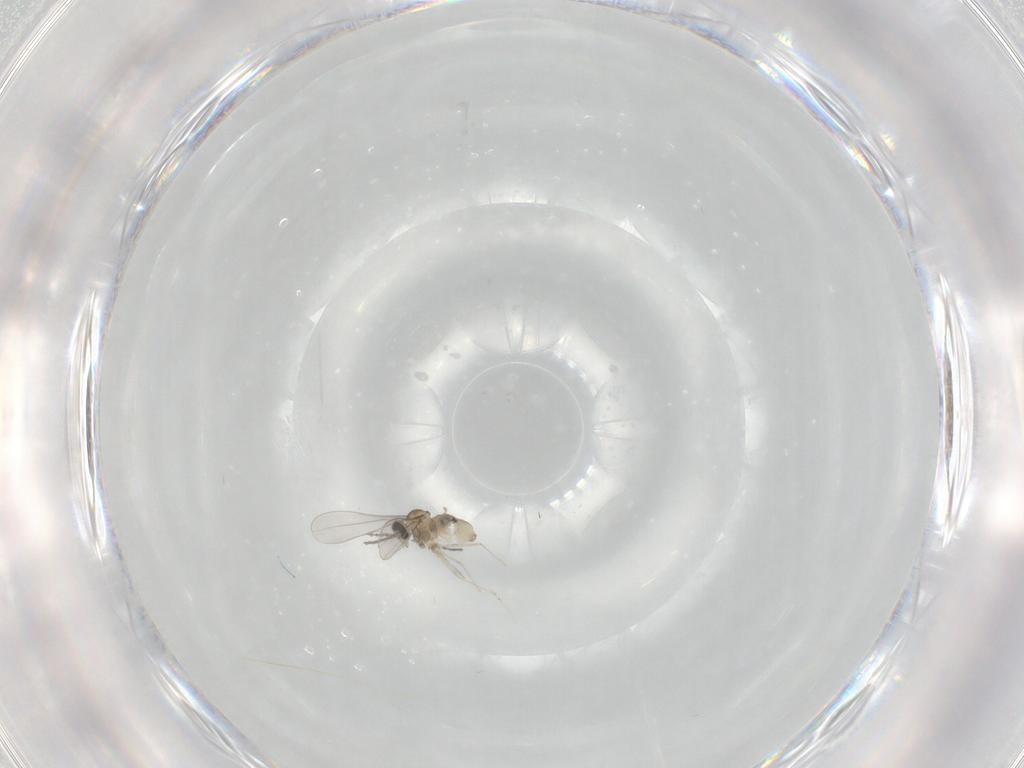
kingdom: Animalia
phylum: Arthropoda
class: Insecta
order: Diptera
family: Cecidomyiidae
